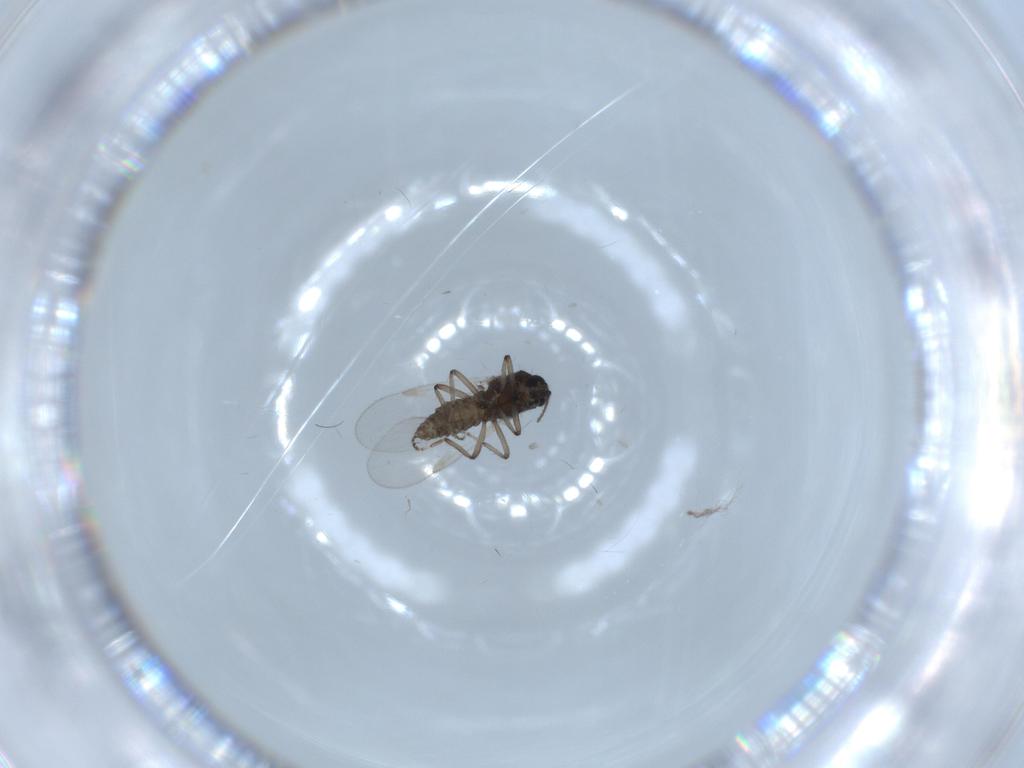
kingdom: Animalia
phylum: Arthropoda
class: Insecta
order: Diptera
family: Ceratopogonidae
